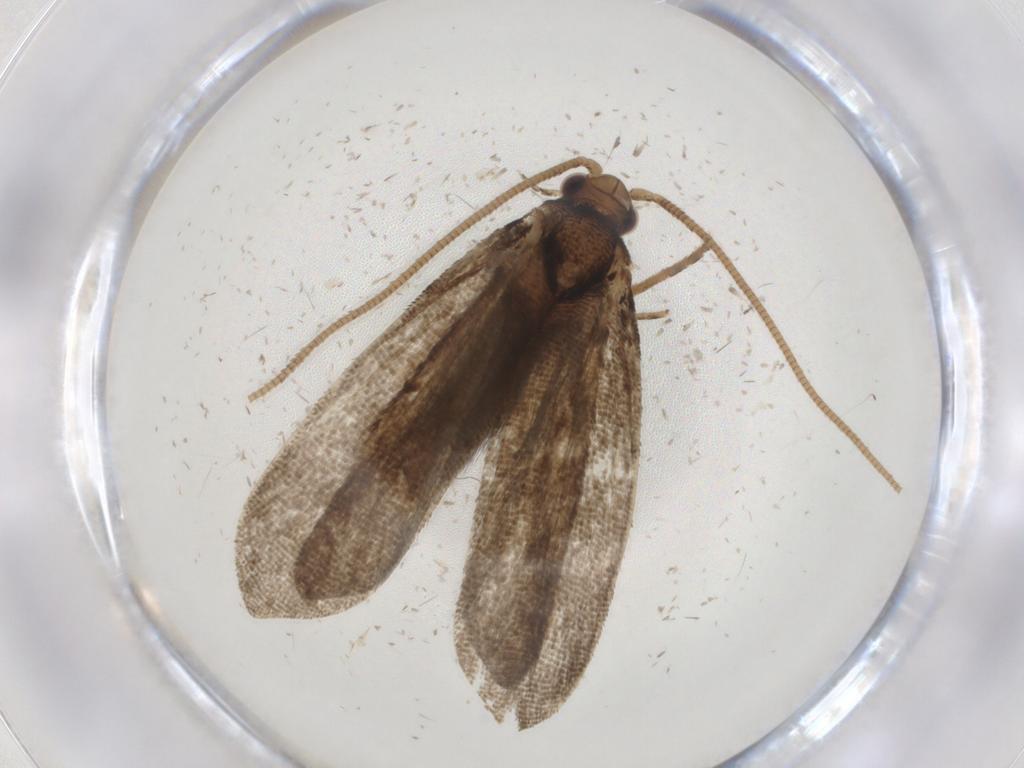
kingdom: Animalia
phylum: Arthropoda
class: Insecta
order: Lepidoptera
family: Tineidae
